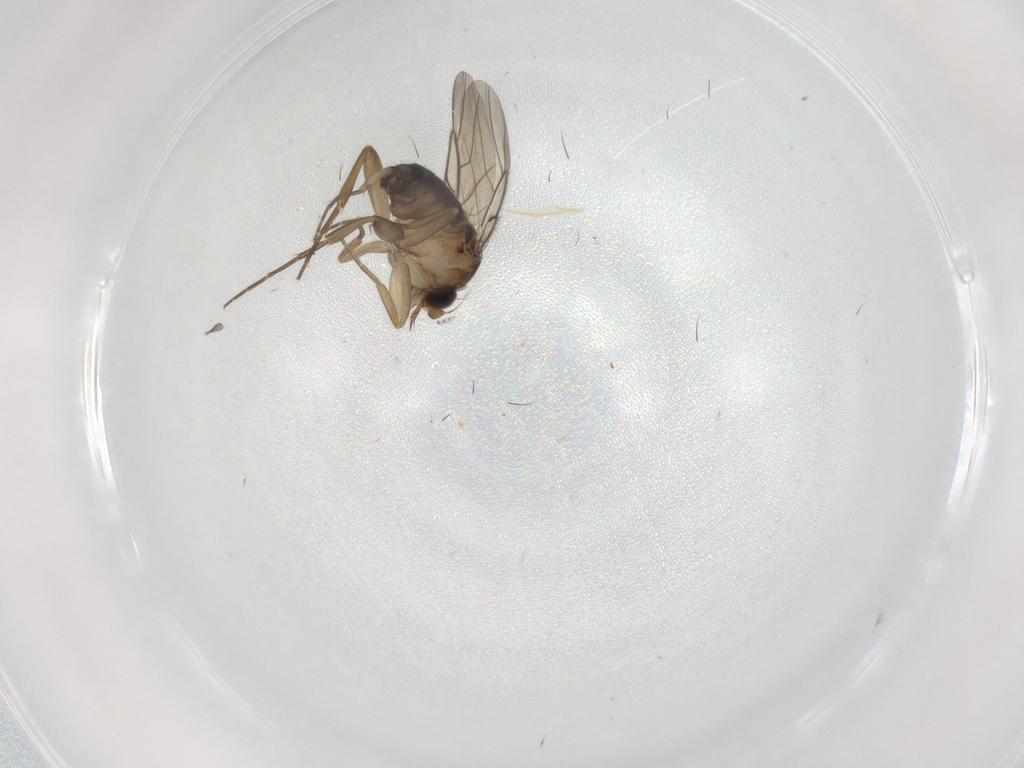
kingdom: Animalia
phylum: Arthropoda
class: Insecta
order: Diptera
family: Phoridae
